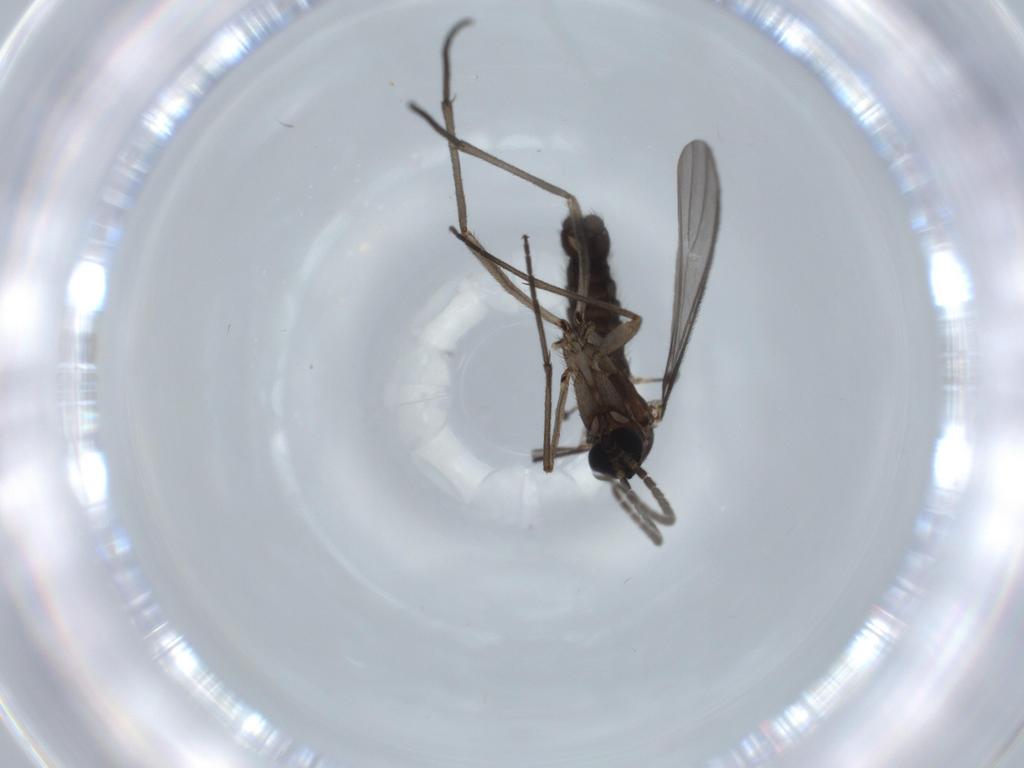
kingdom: Animalia
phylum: Arthropoda
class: Insecta
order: Diptera
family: Sciaridae
